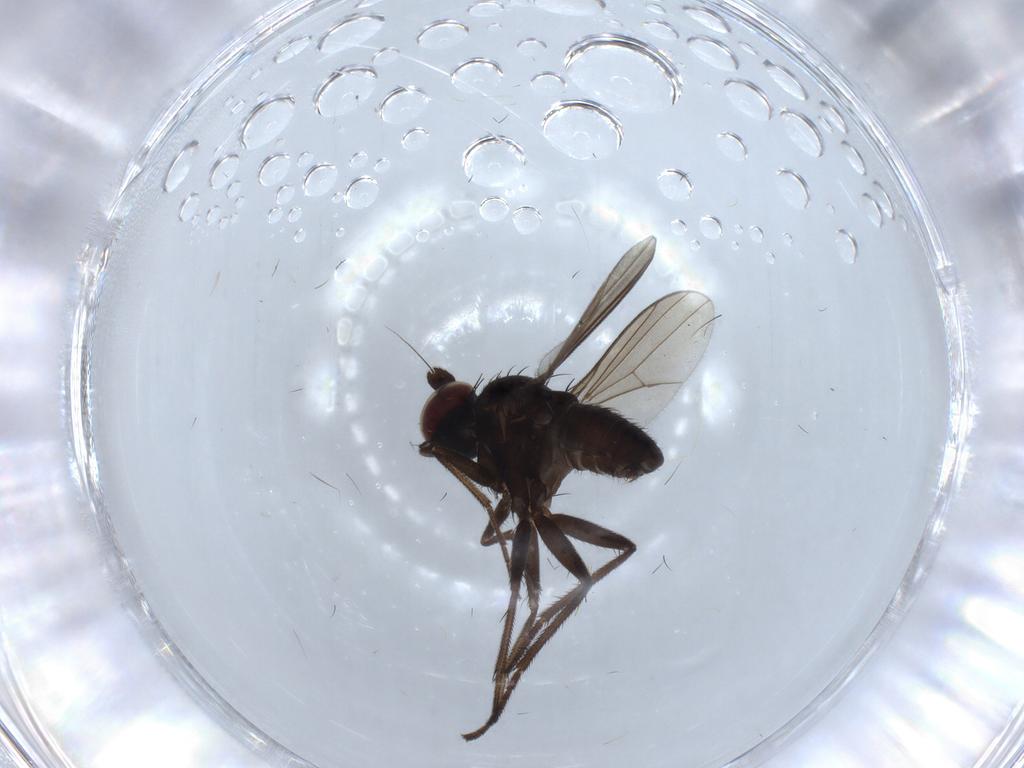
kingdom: Animalia
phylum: Arthropoda
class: Insecta
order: Diptera
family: Dolichopodidae
